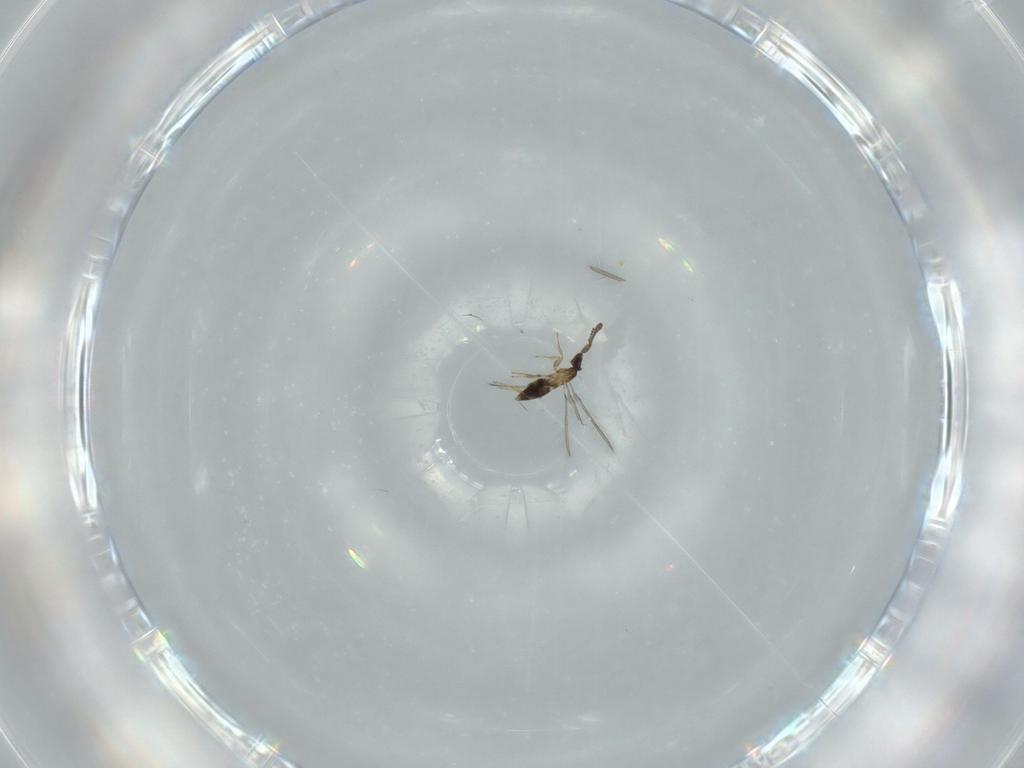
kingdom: Animalia
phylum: Arthropoda
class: Insecta
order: Hymenoptera
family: Mymaridae
